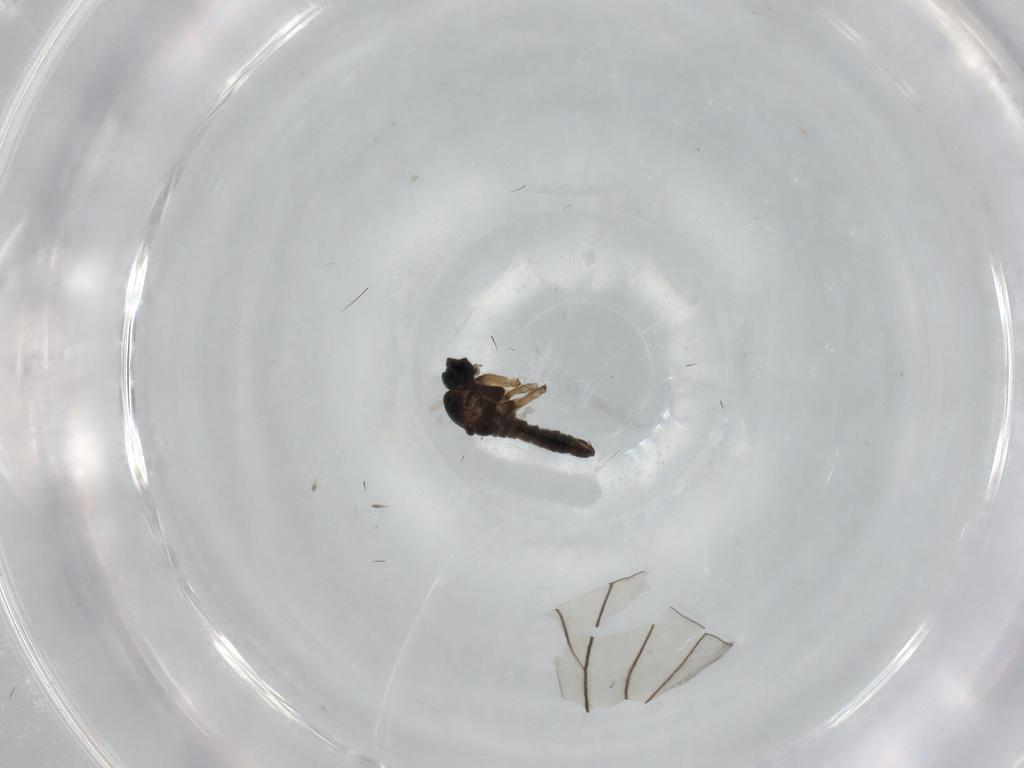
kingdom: Animalia
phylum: Arthropoda
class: Insecta
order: Diptera
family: Sciaridae
